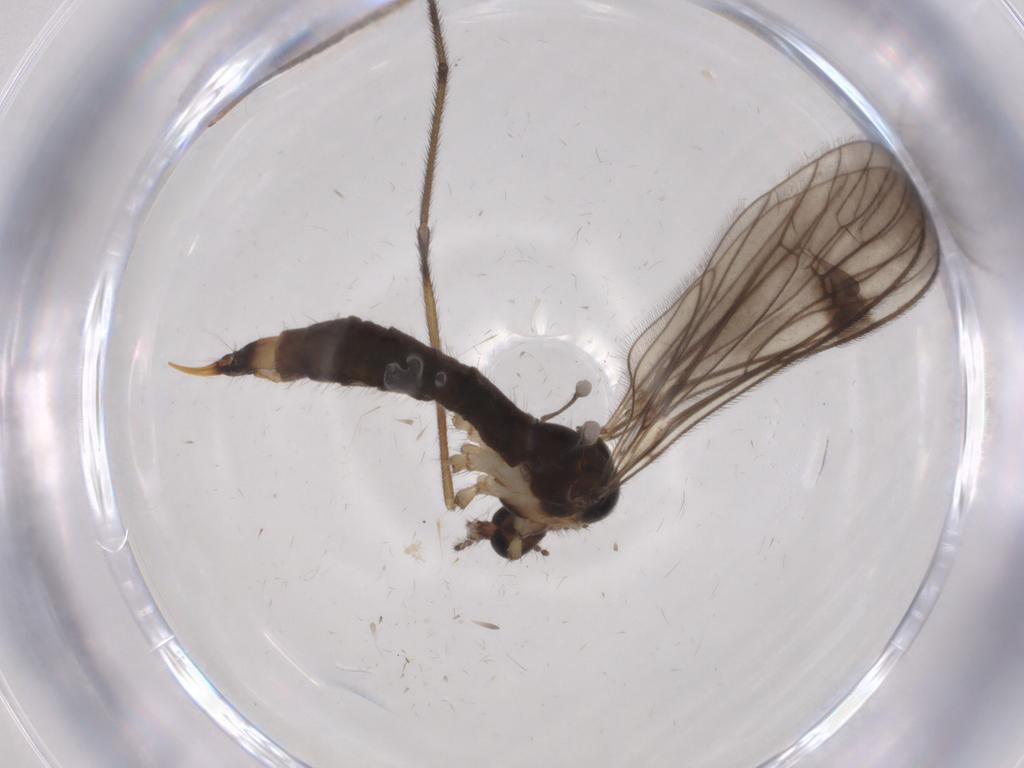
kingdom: Animalia
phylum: Arthropoda
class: Insecta
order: Diptera
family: Limoniidae
